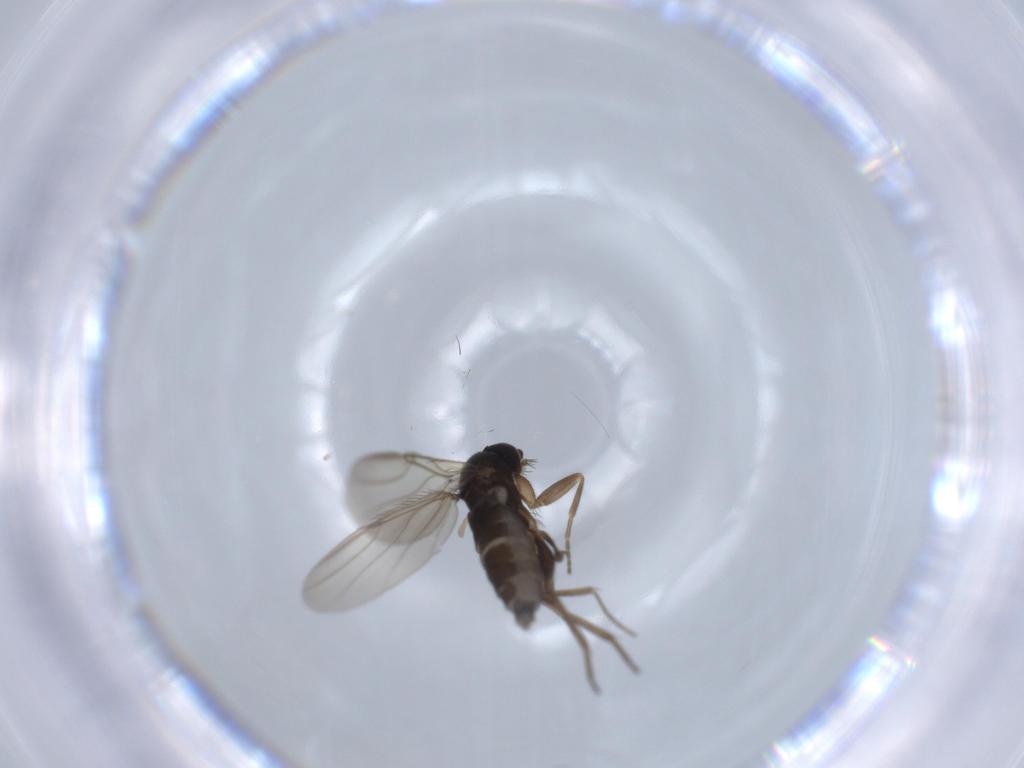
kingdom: Animalia
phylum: Arthropoda
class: Insecta
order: Diptera
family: Phoridae
